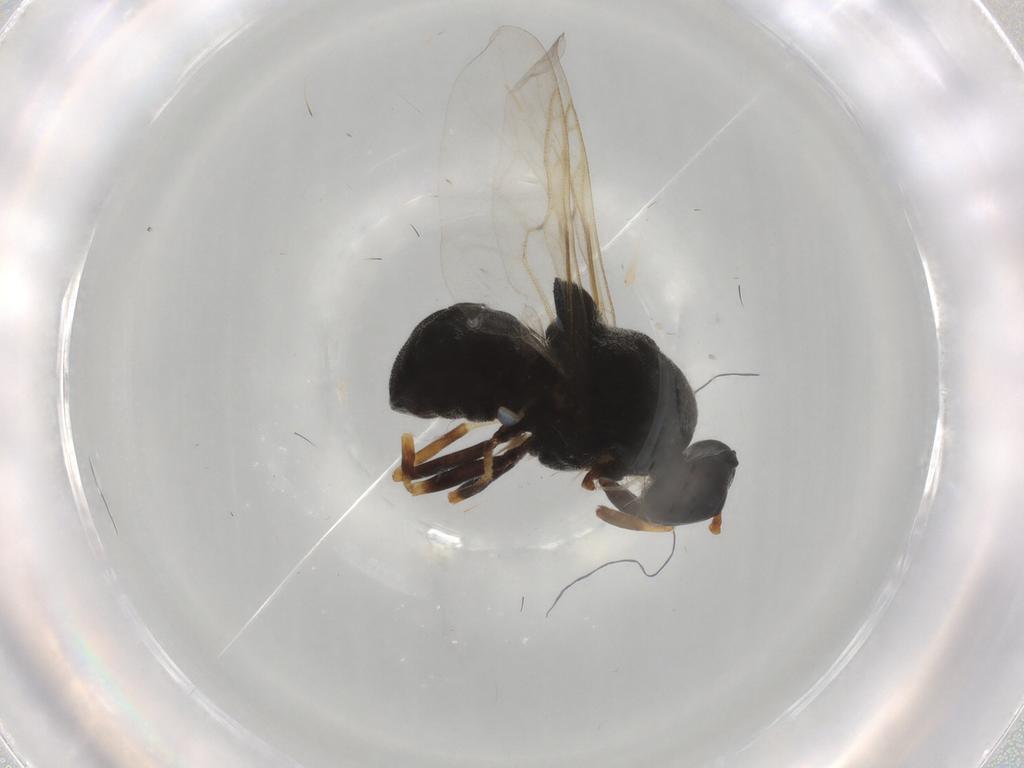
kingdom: Animalia
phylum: Arthropoda
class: Insecta
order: Diptera
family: Stratiomyidae
